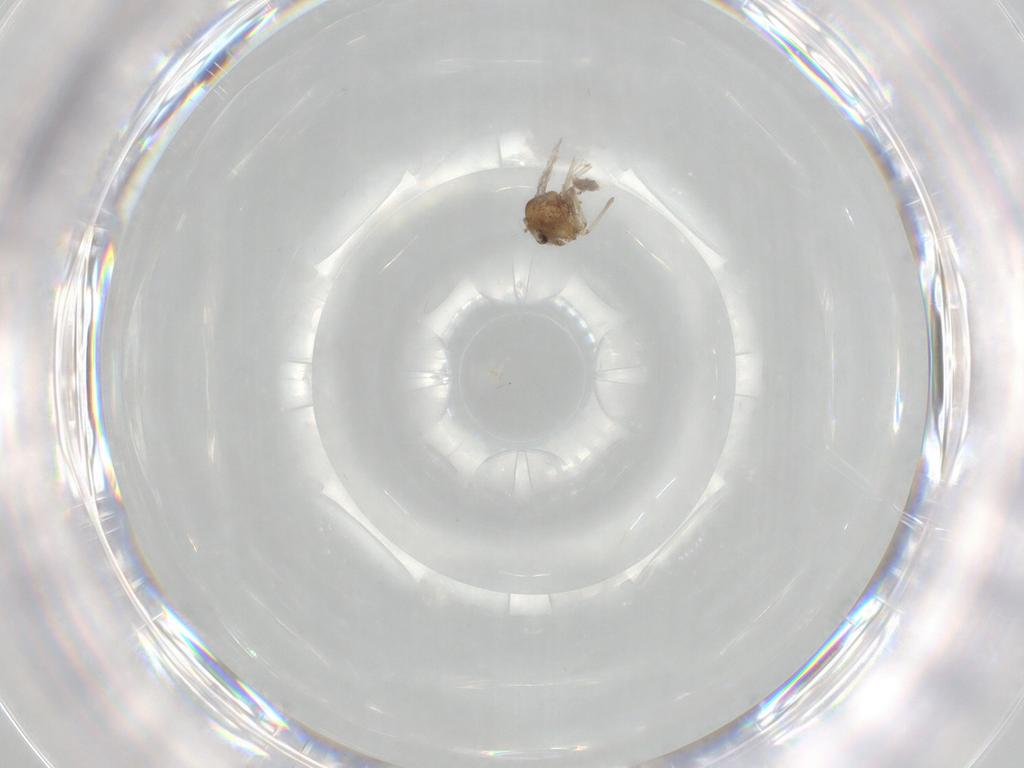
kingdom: Animalia
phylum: Arthropoda
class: Insecta
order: Diptera
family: Chironomidae
